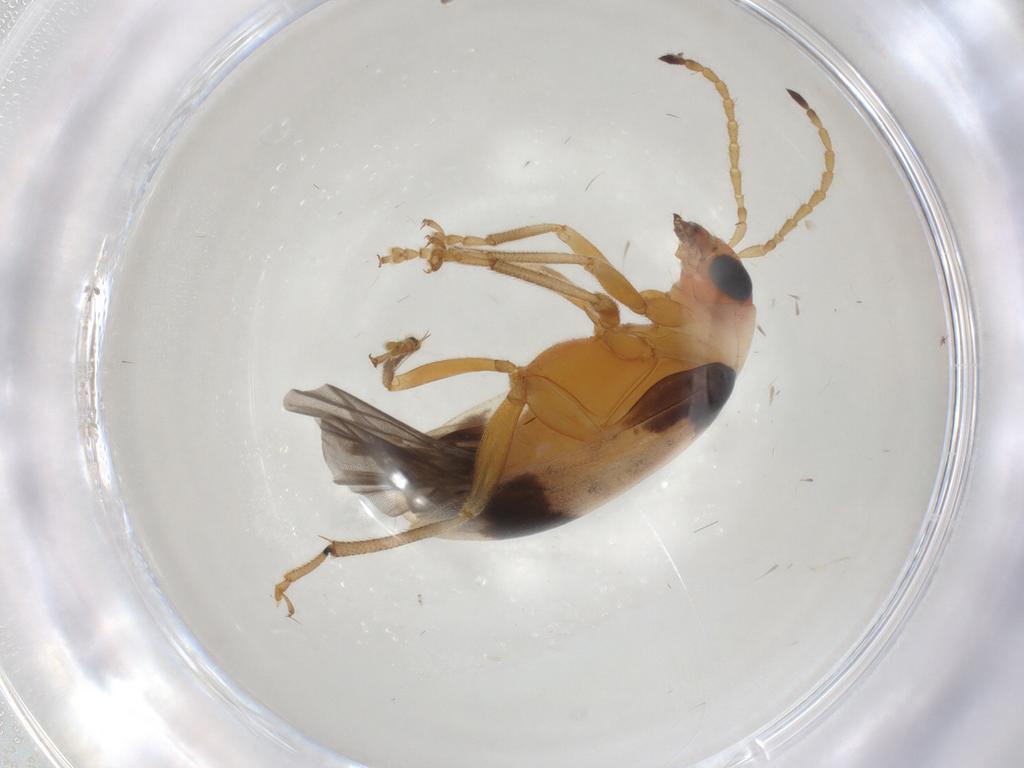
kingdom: Animalia
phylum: Arthropoda
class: Insecta
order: Coleoptera
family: Chrysomelidae
